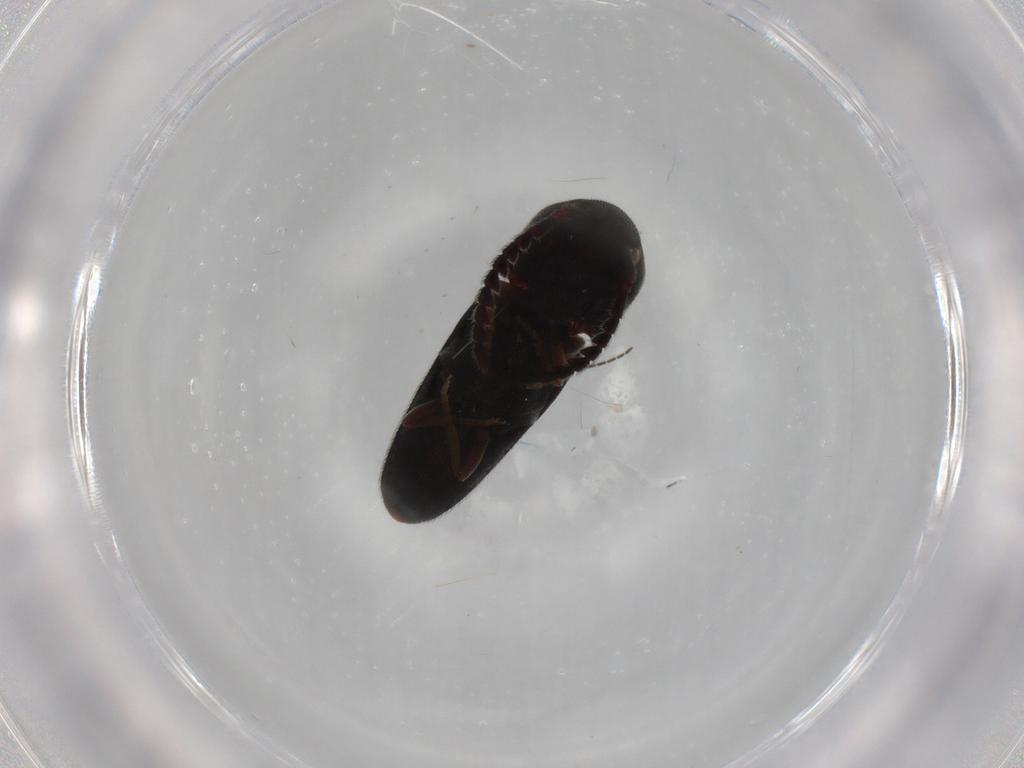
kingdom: Animalia
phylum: Arthropoda
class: Insecta
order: Coleoptera
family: Eucnemidae
